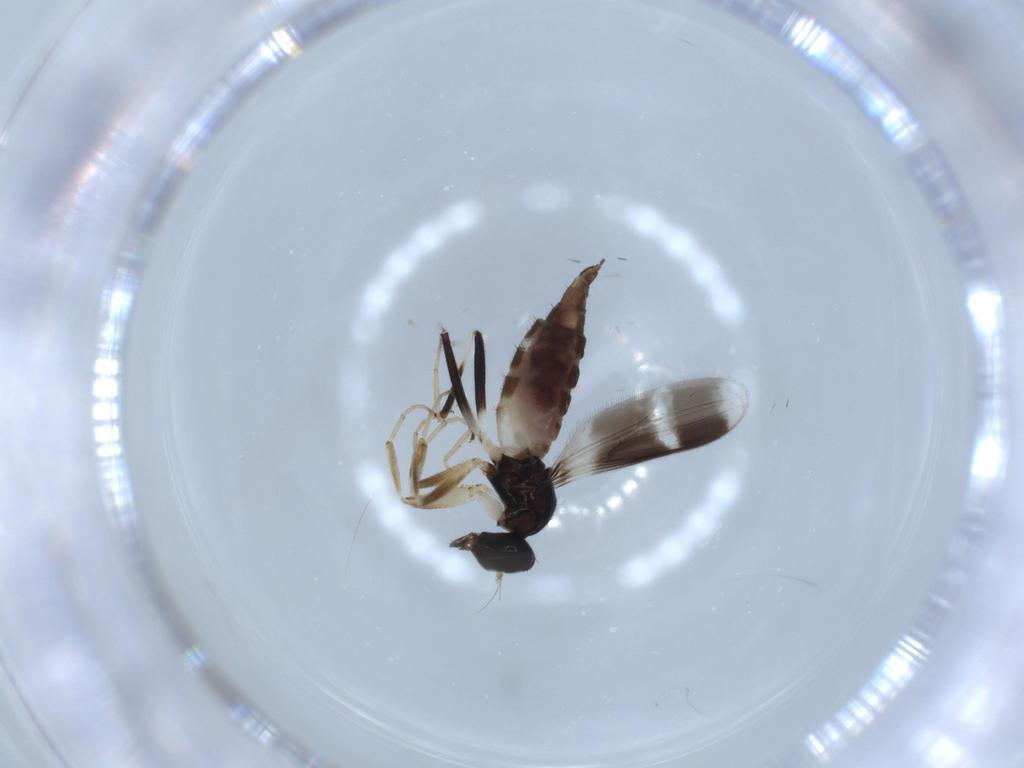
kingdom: Animalia
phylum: Arthropoda
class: Insecta
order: Diptera
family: Hybotidae
